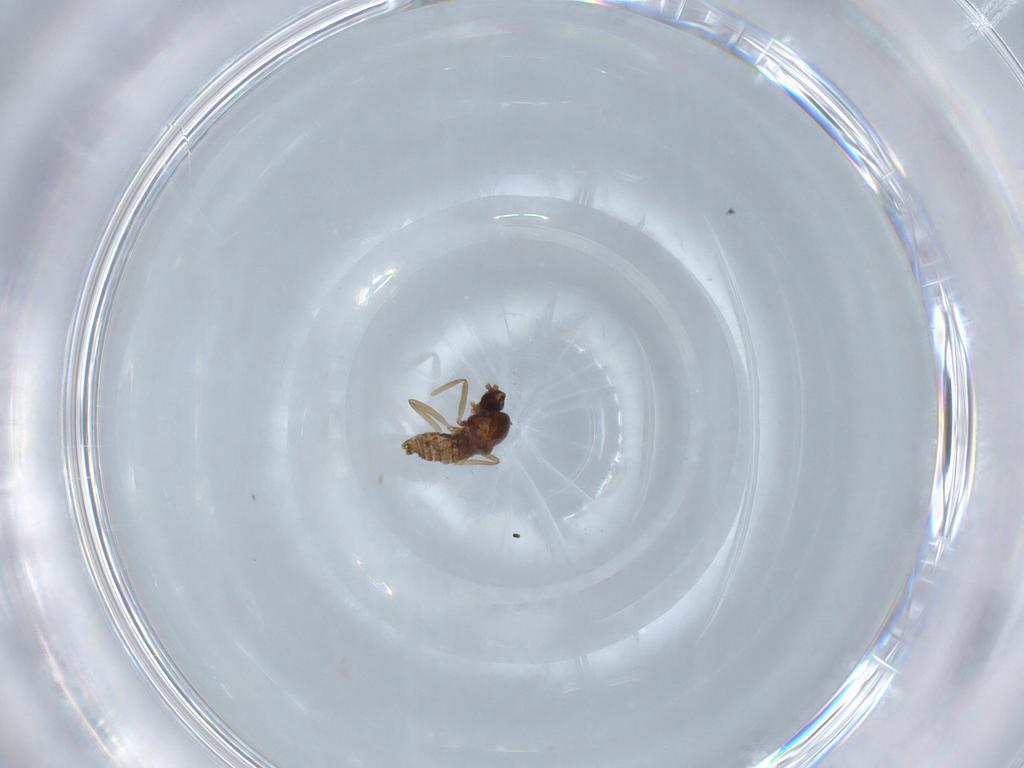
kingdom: Animalia
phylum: Arthropoda
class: Insecta
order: Diptera
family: Cecidomyiidae
